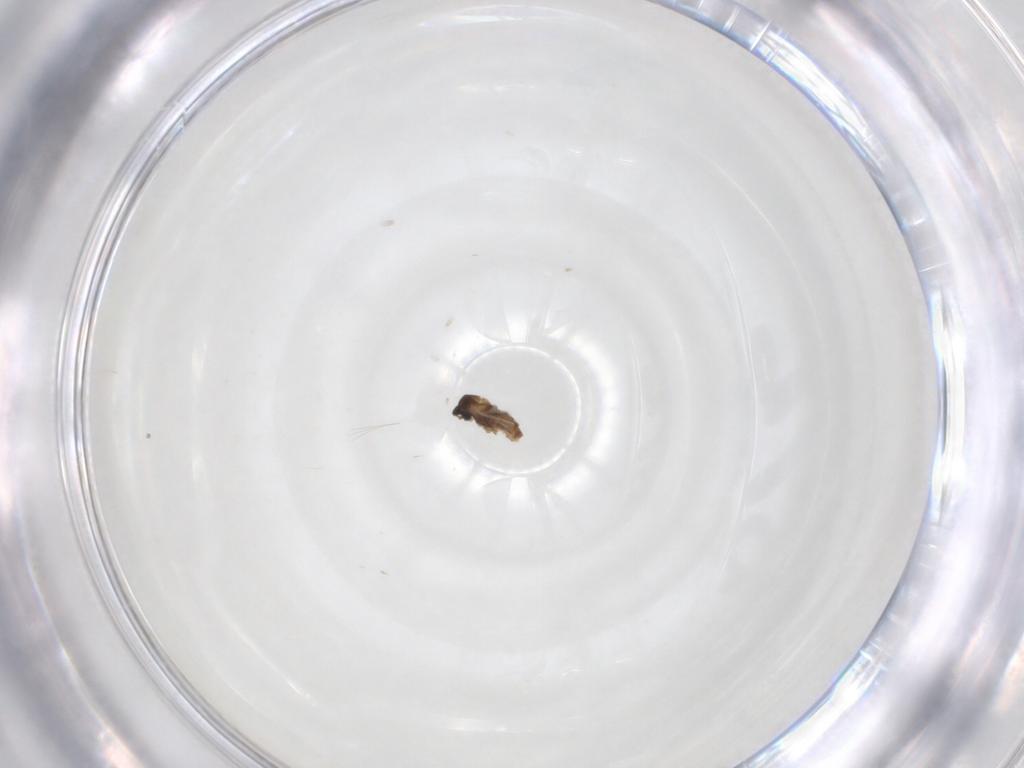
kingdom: Animalia
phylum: Arthropoda
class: Insecta
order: Diptera
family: Cecidomyiidae
